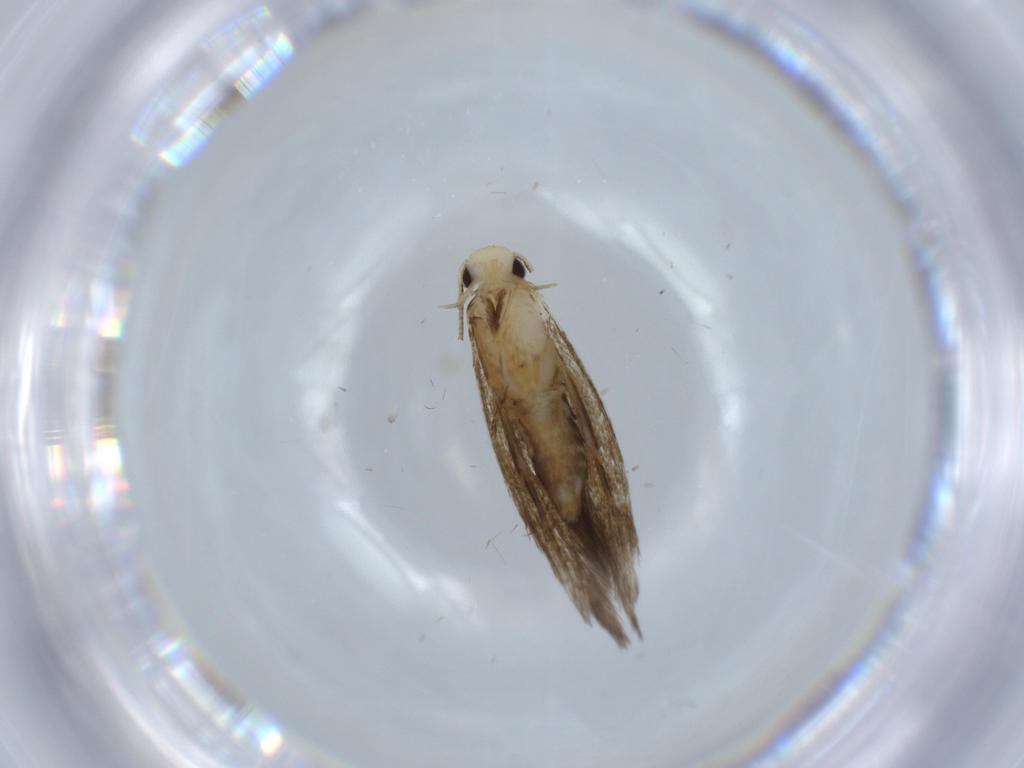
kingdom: Animalia
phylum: Arthropoda
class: Insecta
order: Lepidoptera
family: Tineidae
